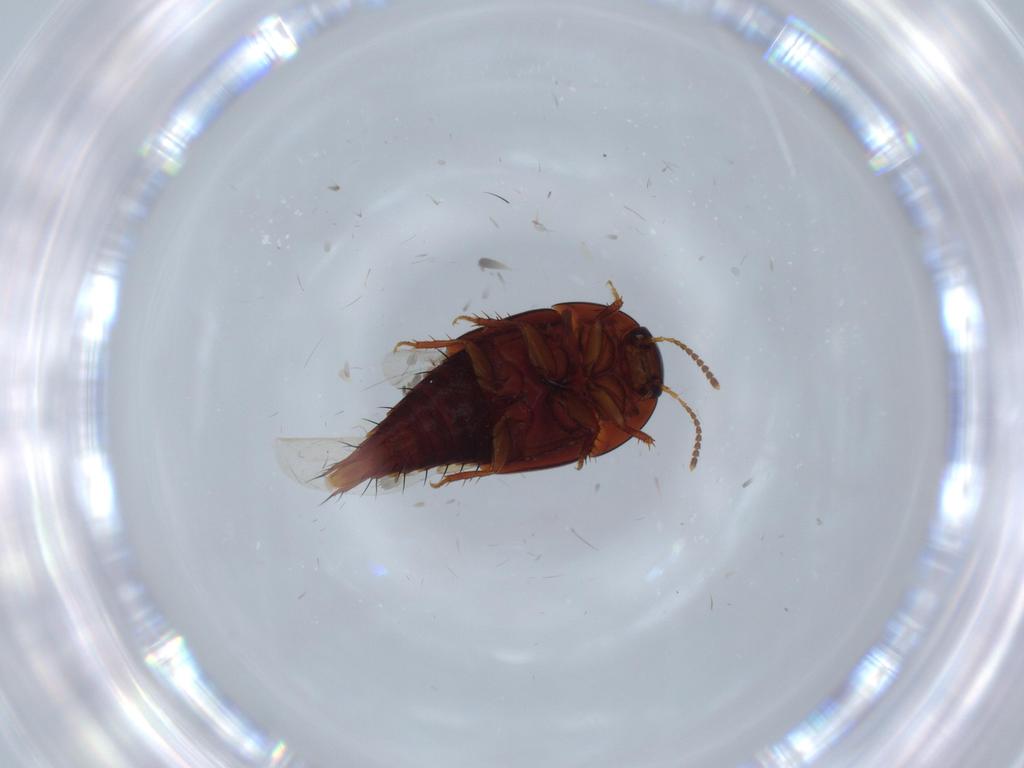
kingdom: Animalia
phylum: Arthropoda
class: Insecta
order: Coleoptera
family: Staphylinidae
